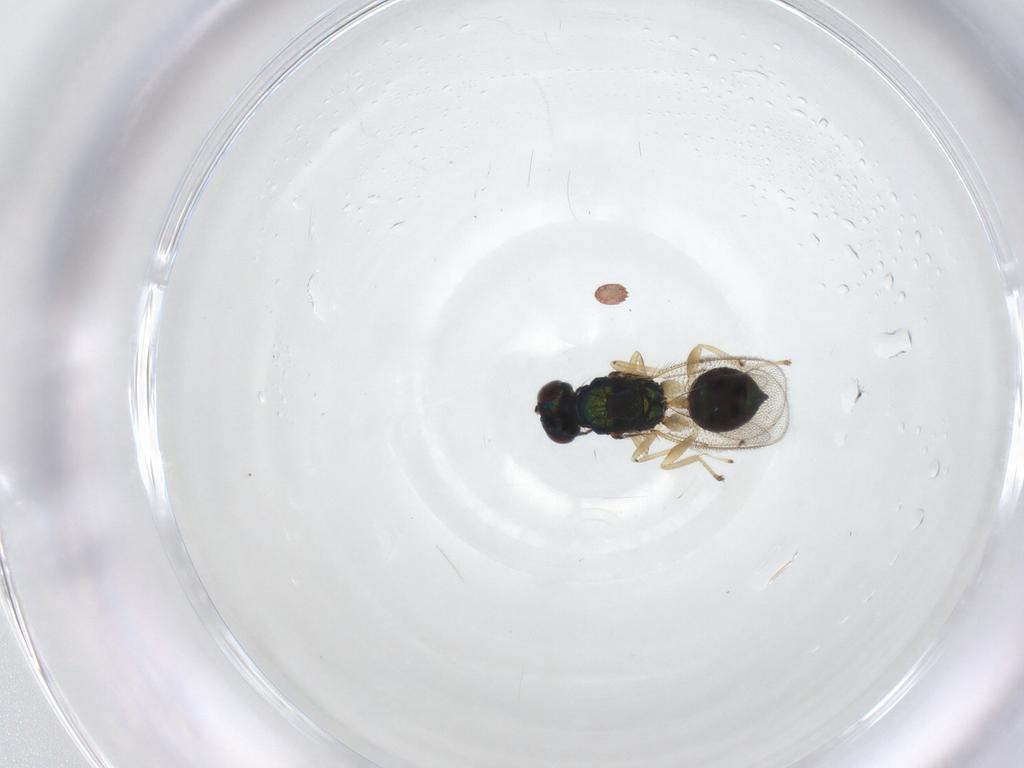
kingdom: Animalia
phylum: Arthropoda
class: Insecta
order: Hymenoptera
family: Eulophidae
